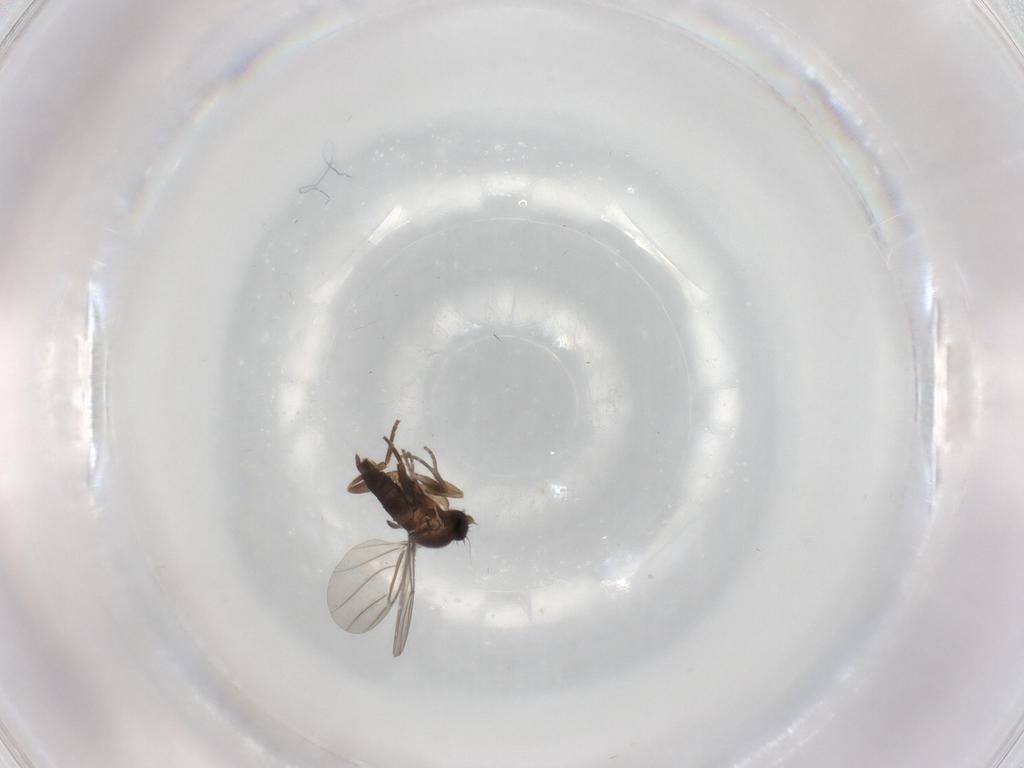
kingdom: Animalia
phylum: Arthropoda
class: Insecta
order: Diptera
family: Phoridae
